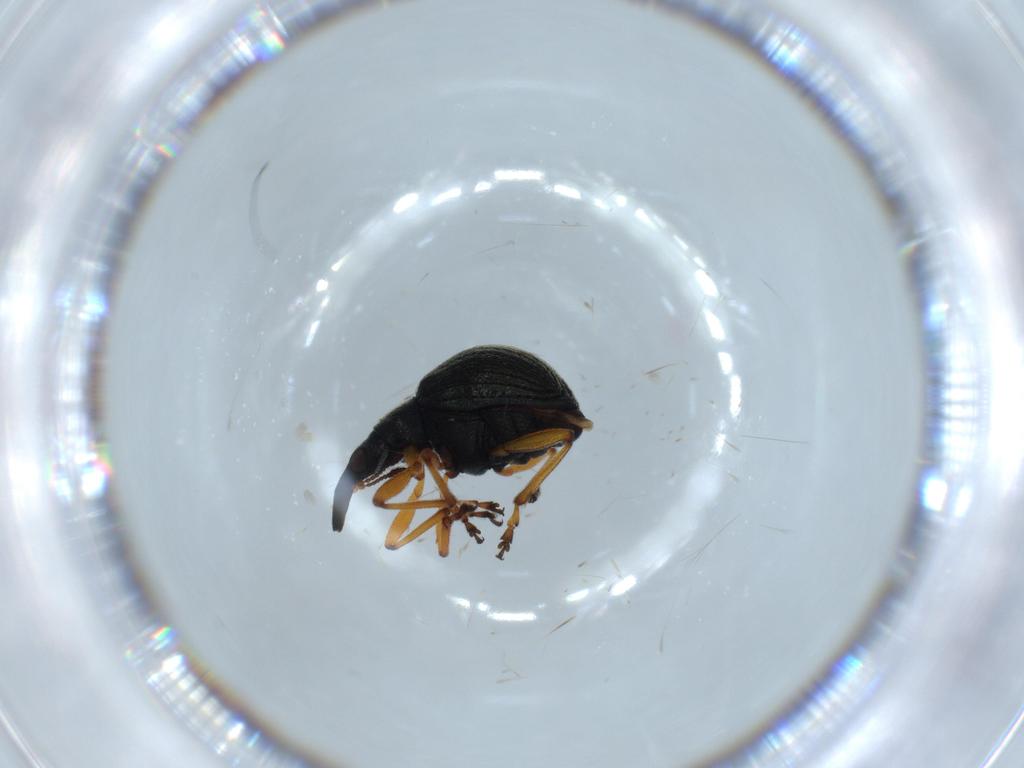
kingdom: Animalia
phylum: Arthropoda
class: Insecta
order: Coleoptera
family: Brentidae
